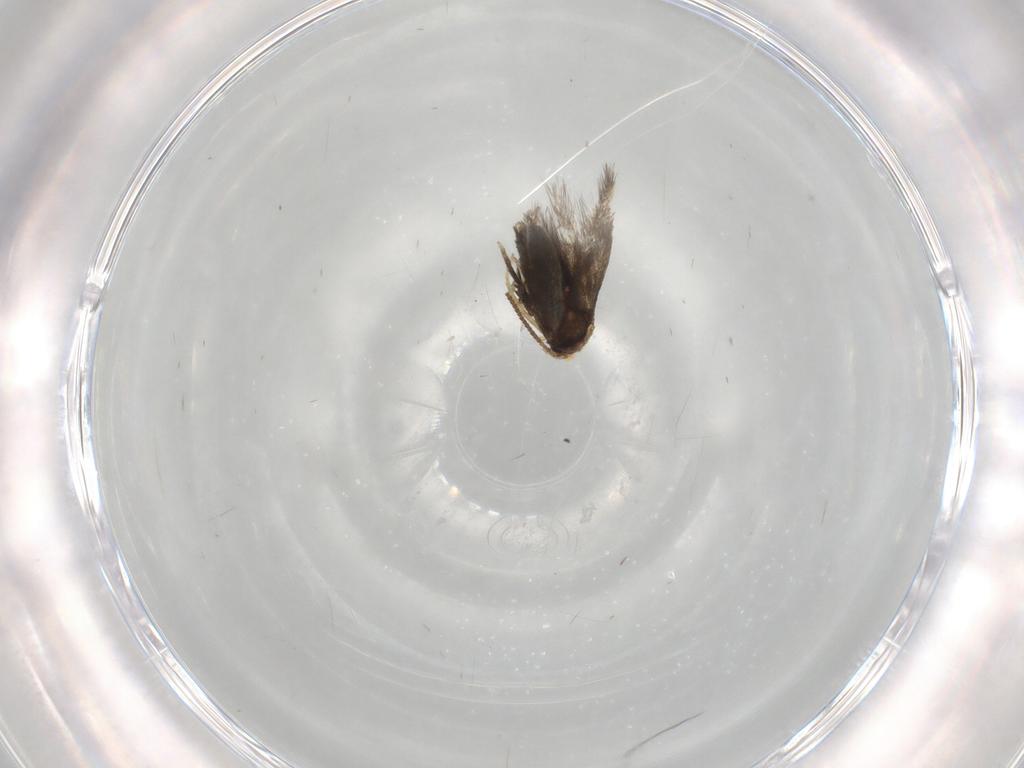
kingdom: Animalia
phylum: Arthropoda
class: Insecta
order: Lepidoptera
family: Nepticulidae
